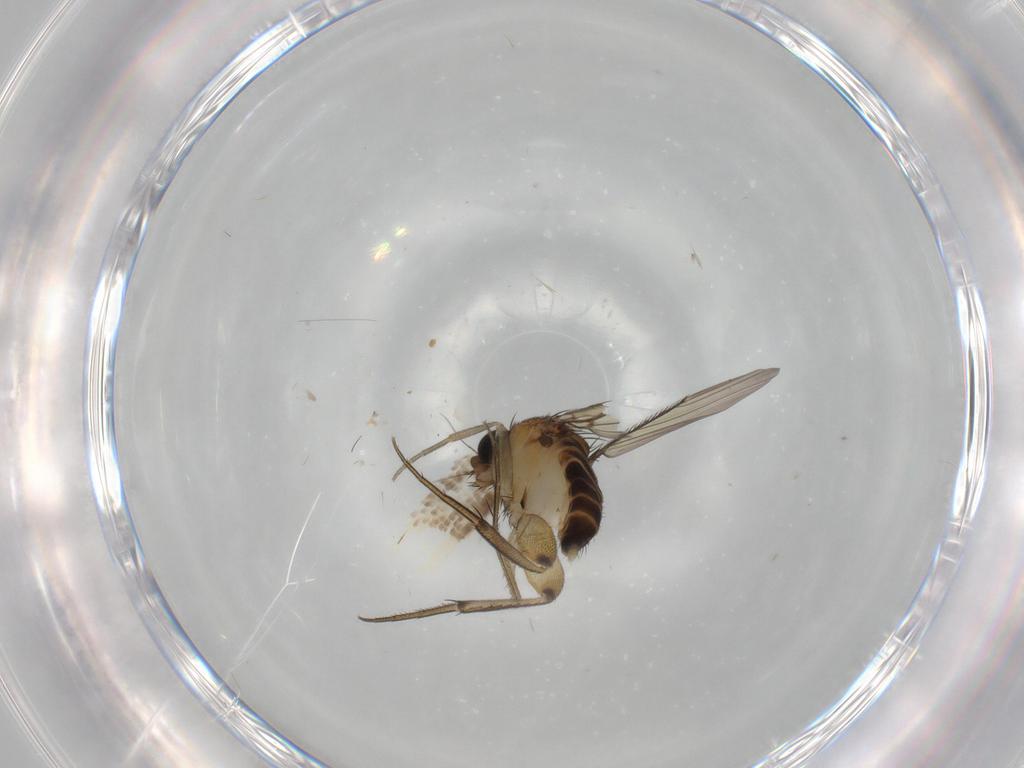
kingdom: Animalia
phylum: Arthropoda
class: Insecta
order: Diptera
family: Phoridae
